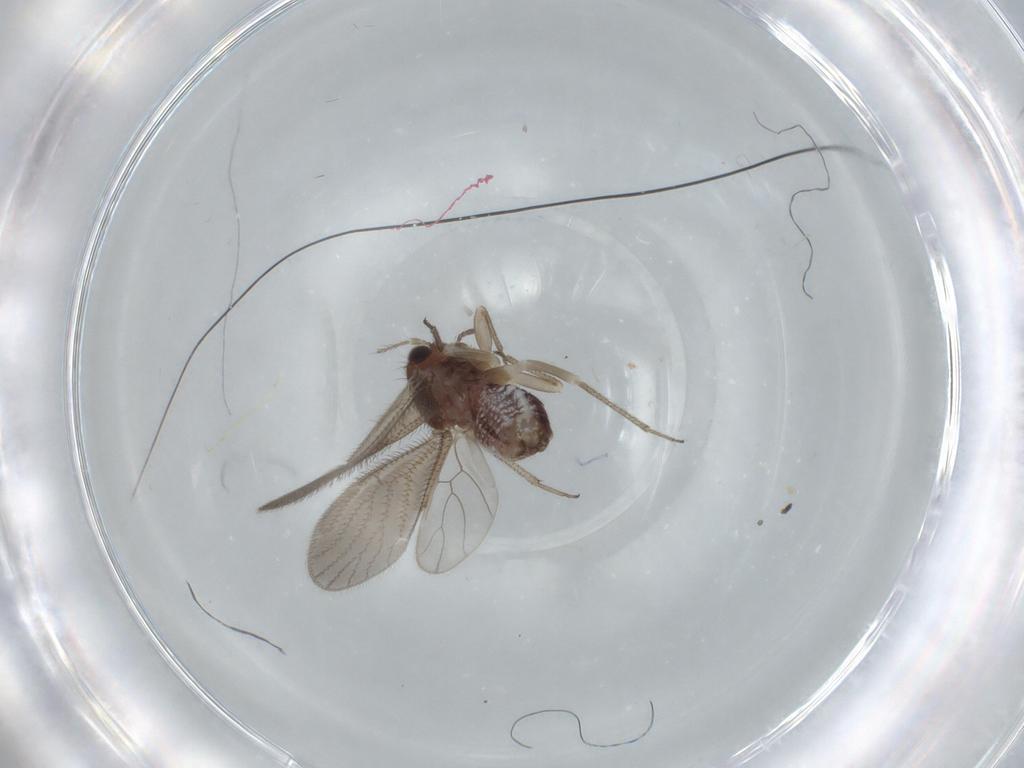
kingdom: Animalia
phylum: Arthropoda
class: Insecta
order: Psocodea
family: Caeciliusidae
